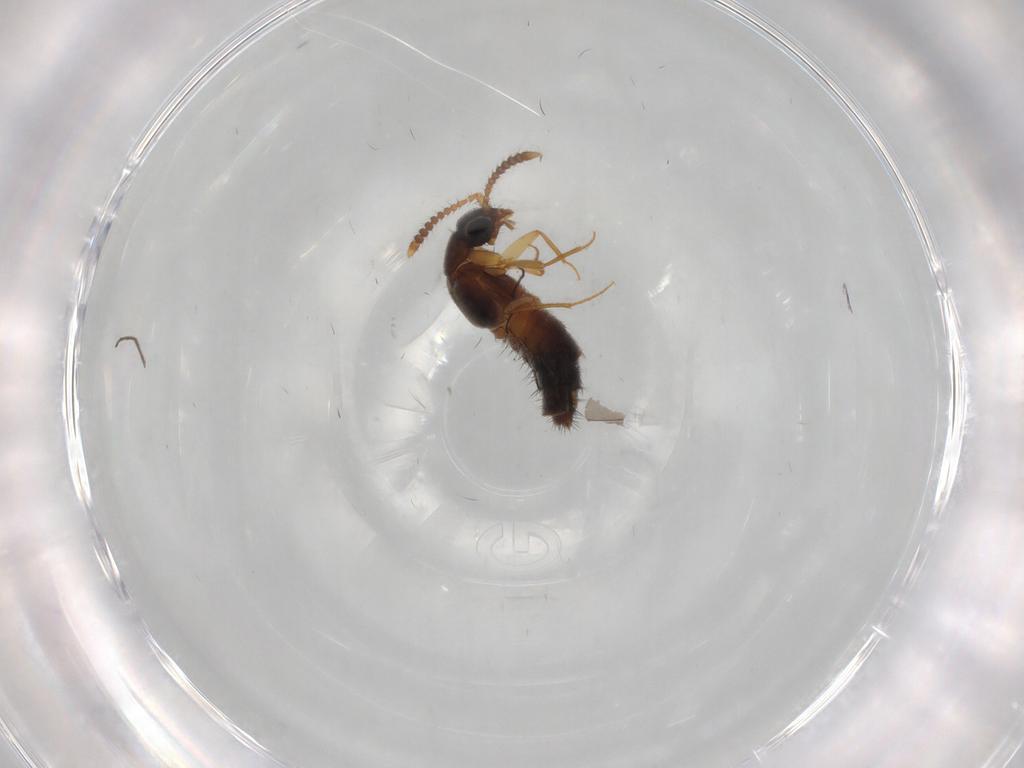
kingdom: Animalia
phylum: Arthropoda
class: Insecta
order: Coleoptera
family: Staphylinidae
